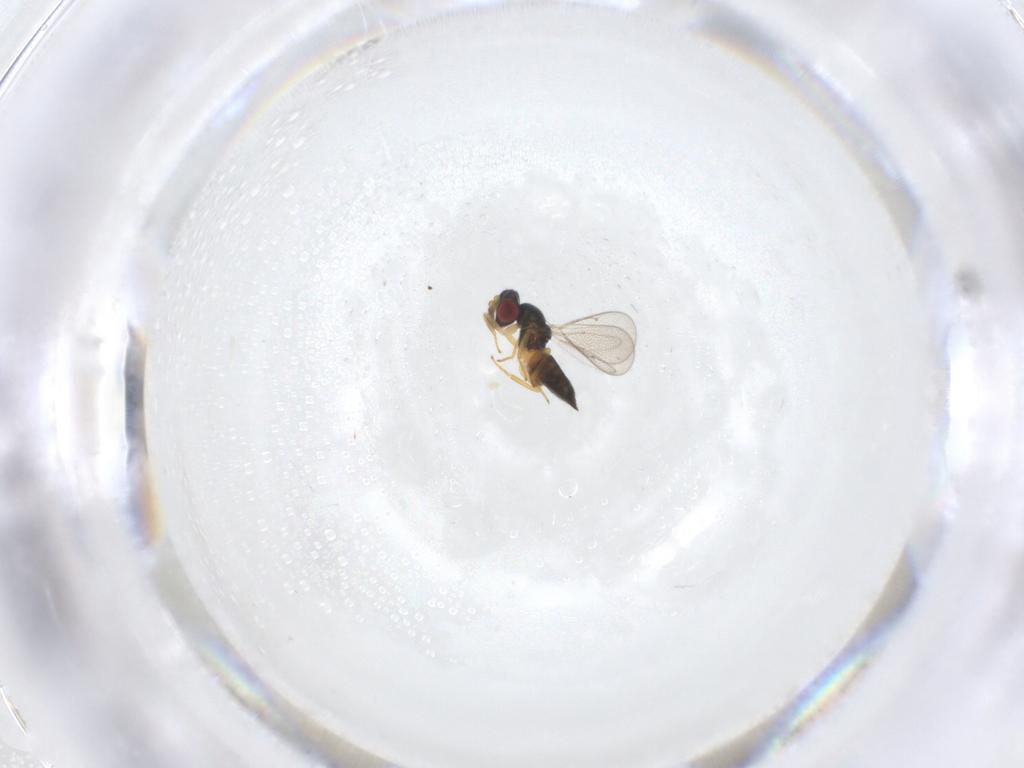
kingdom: Animalia
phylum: Arthropoda
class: Insecta
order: Hymenoptera
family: Eulophidae
